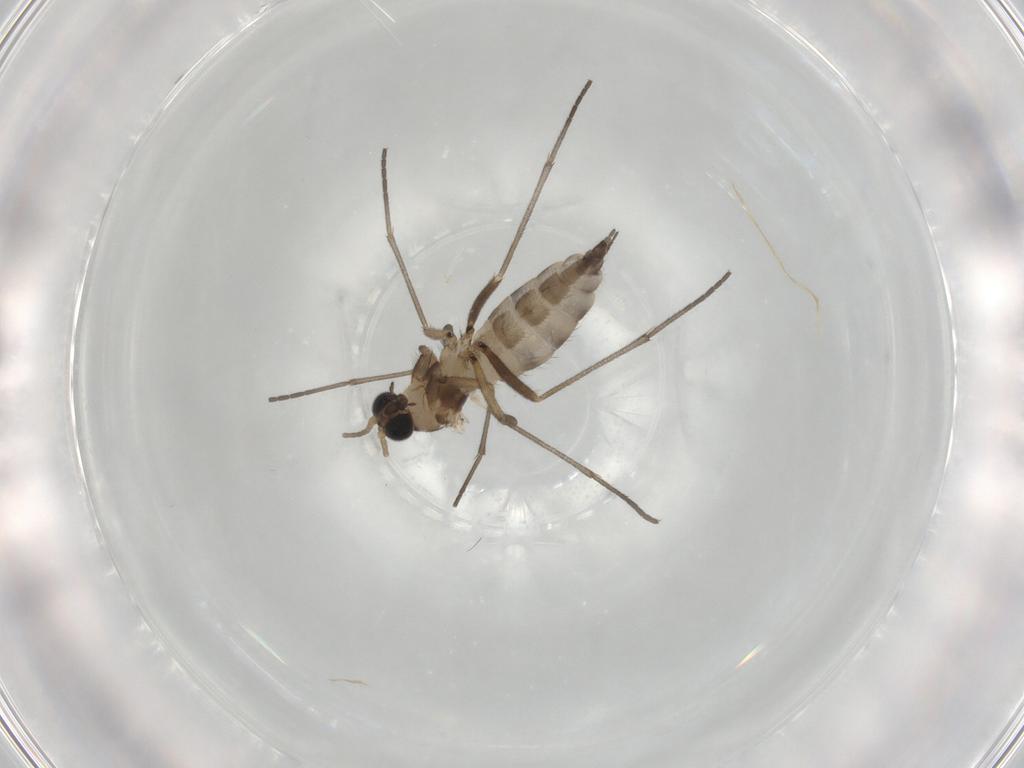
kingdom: Animalia
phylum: Arthropoda
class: Insecta
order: Diptera
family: Sciaridae
